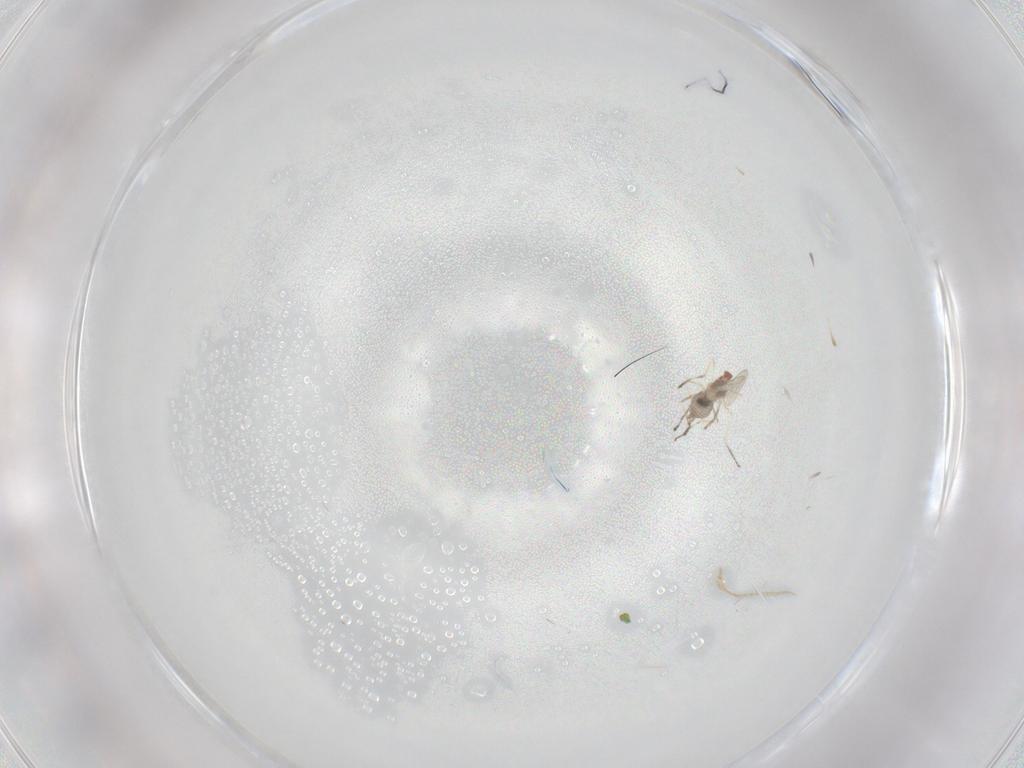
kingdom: Animalia
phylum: Arthropoda
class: Insecta
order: Diptera
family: Cecidomyiidae
